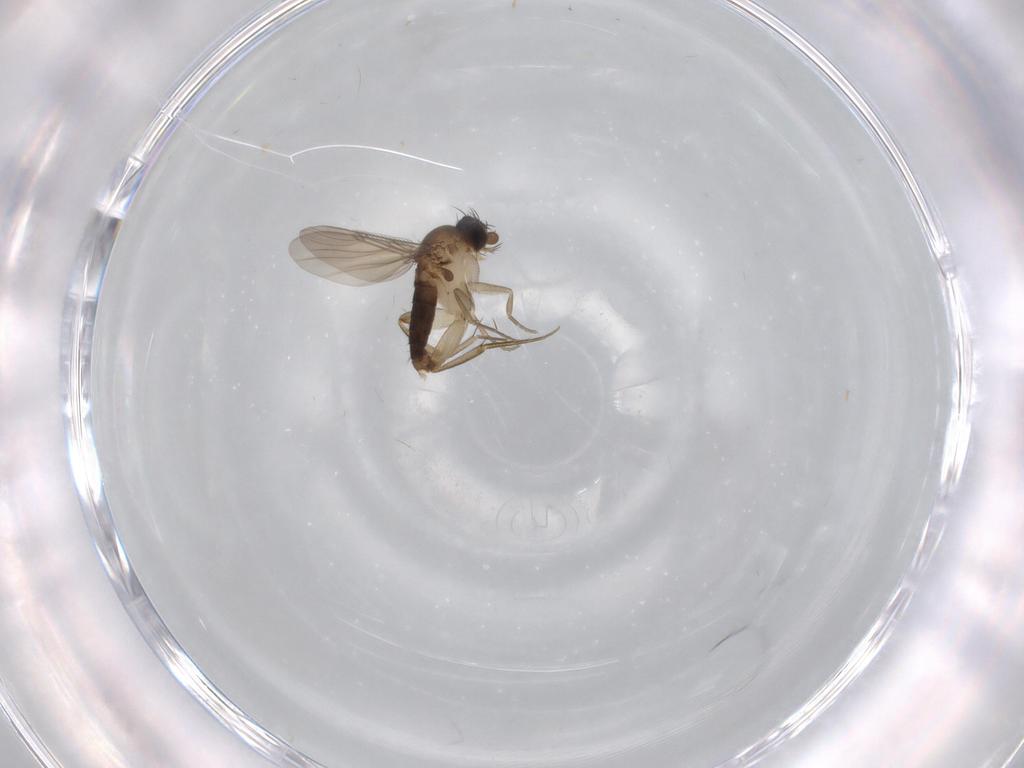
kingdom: Animalia
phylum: Arthropoda
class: Insecta
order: Diptera
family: Phoridae
